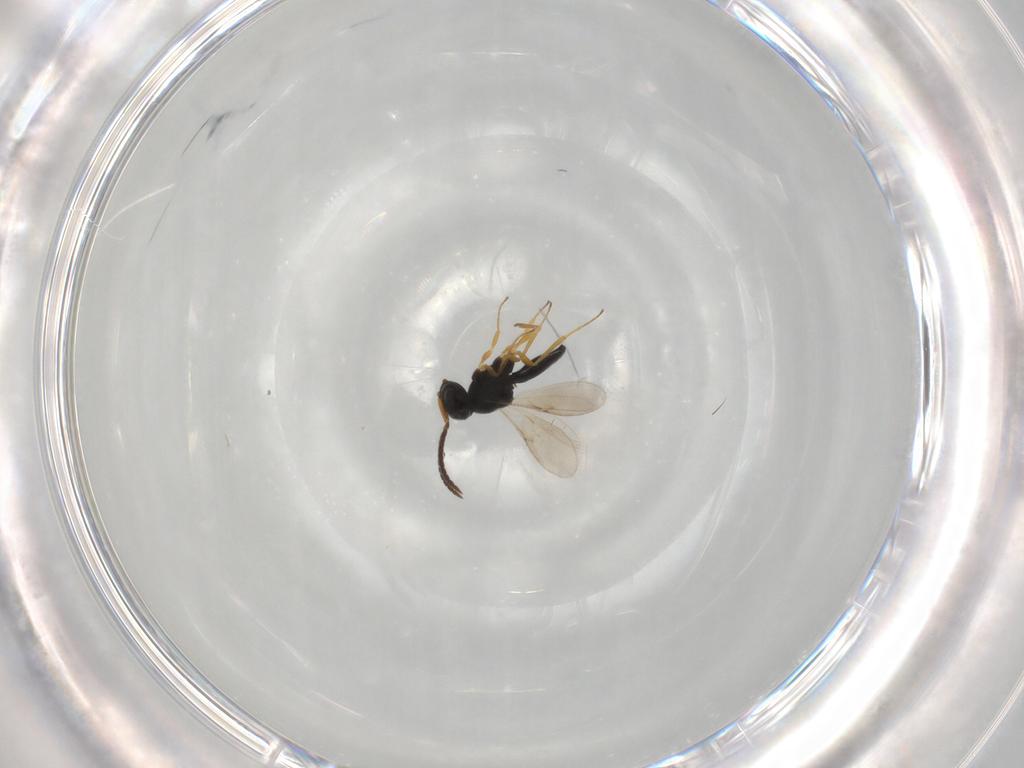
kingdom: Animalia
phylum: Arthropoda
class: Insecta
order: Hymenoptera
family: Scelionidae
